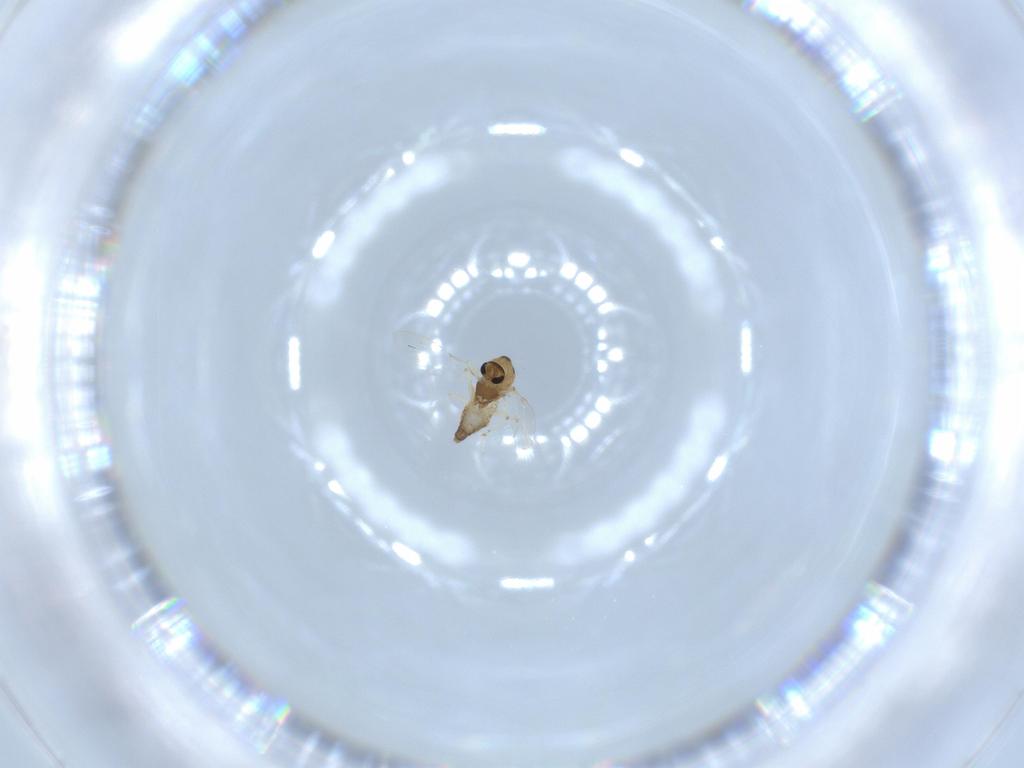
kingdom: Animalia
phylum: Arthropoda
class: Insecta
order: Diptera
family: Chironomidae
